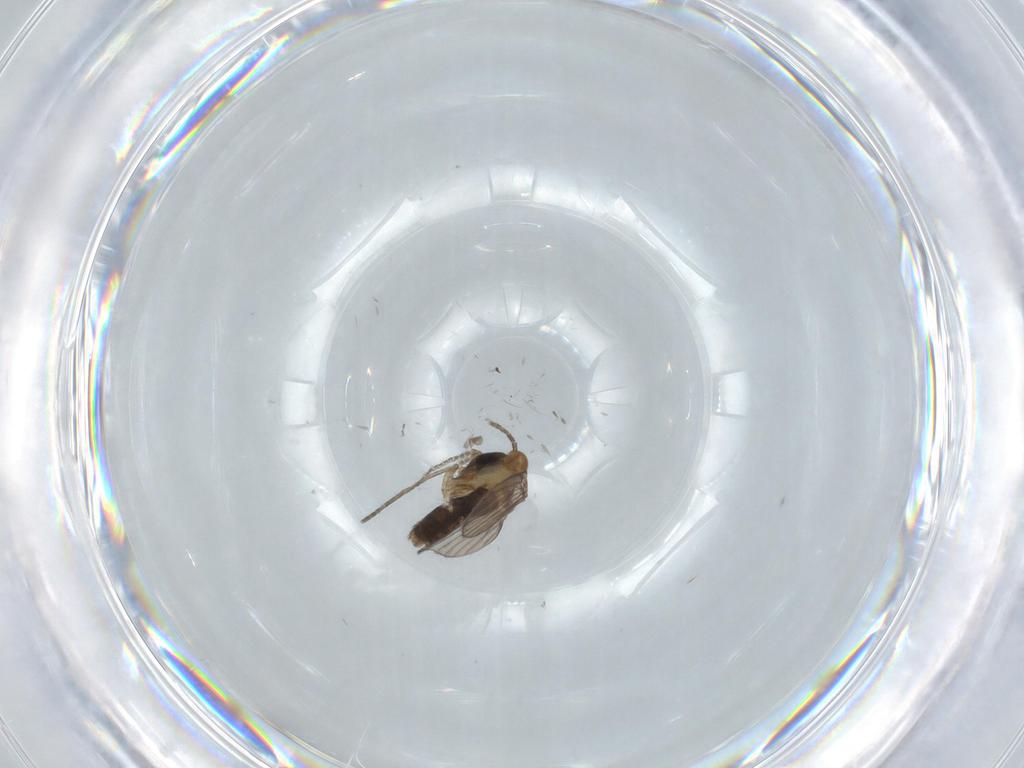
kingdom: Animalia
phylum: Arthropoda
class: Insecta
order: Diptera
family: Psychodidae
